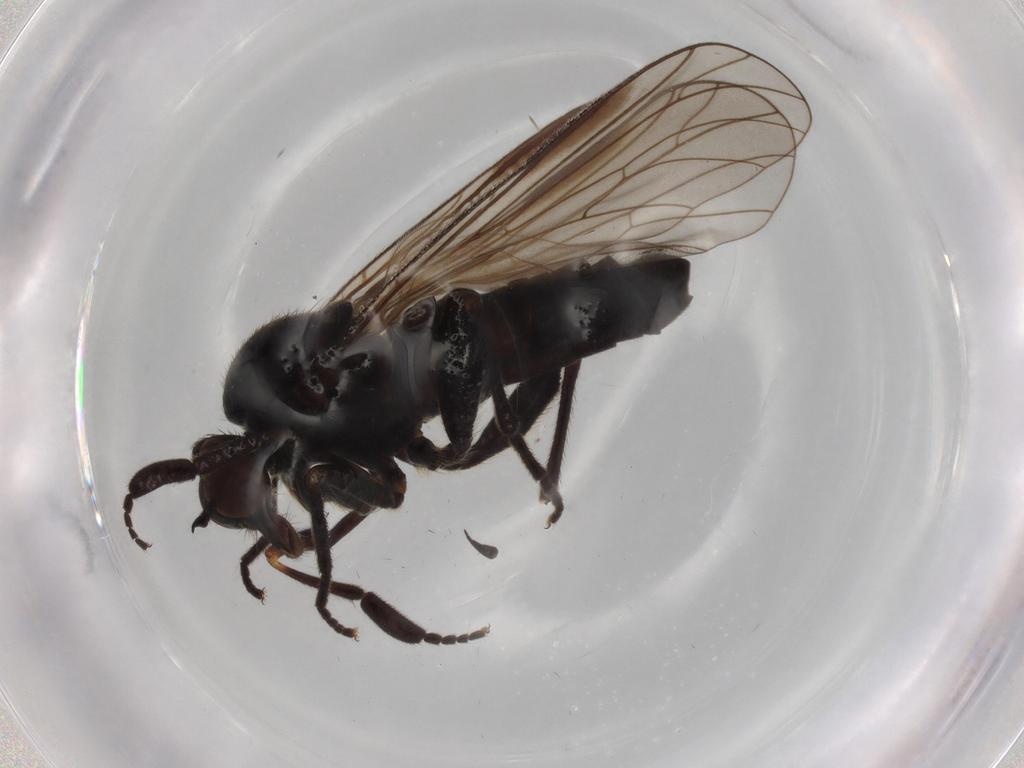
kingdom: Animalia
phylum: Arthropoda
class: Insecta
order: Diptera
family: Empididae
